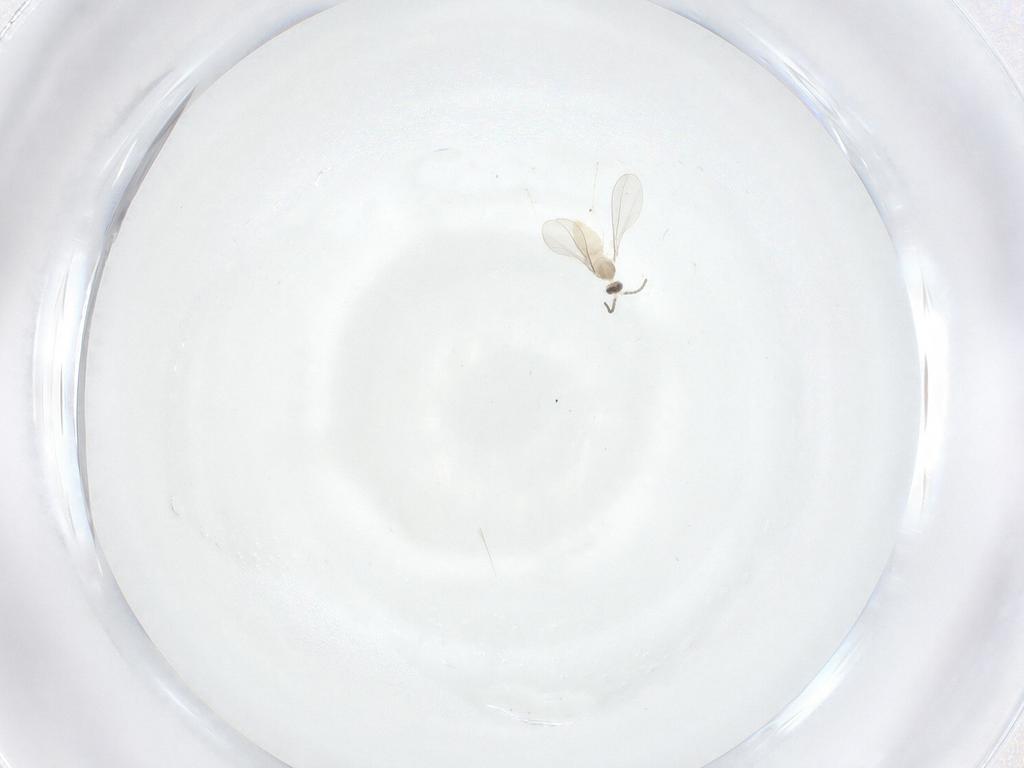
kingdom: Animalia
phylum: Arthropoda
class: Insecta
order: Diptera
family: Cecidomyiidae
